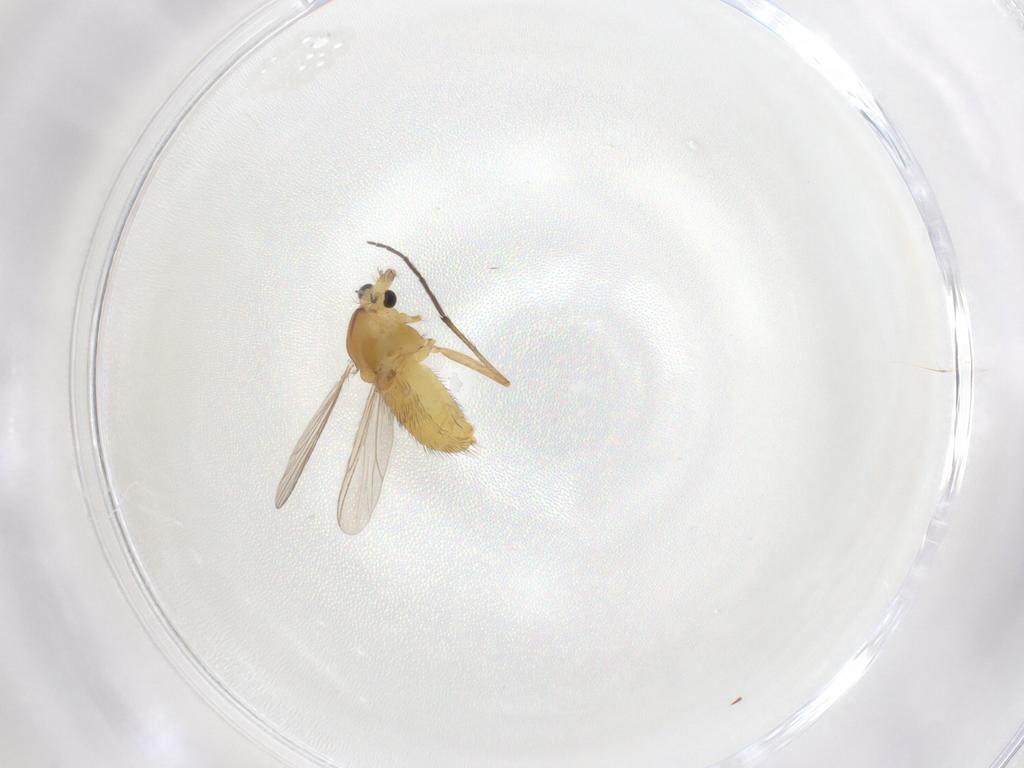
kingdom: Animalia
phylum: Arthropoda
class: Insecta
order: Diptera
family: Chironomidae
